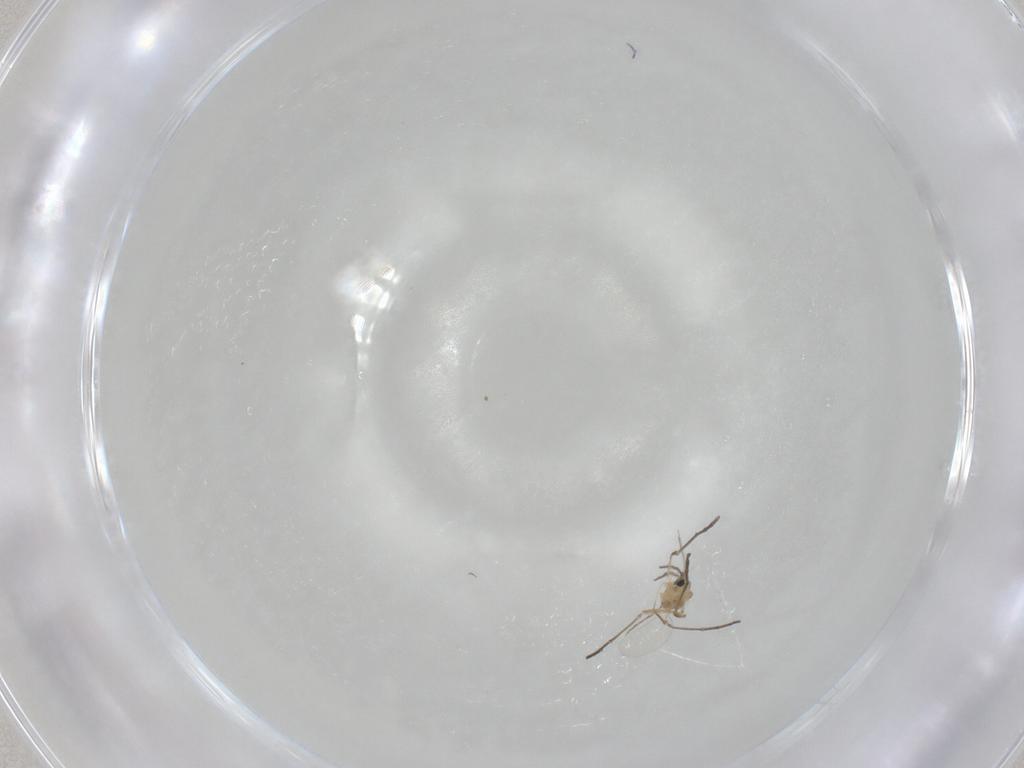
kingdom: Animalia
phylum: Arthropoda
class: Insecta
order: Diptera
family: Cecidomyiidae
